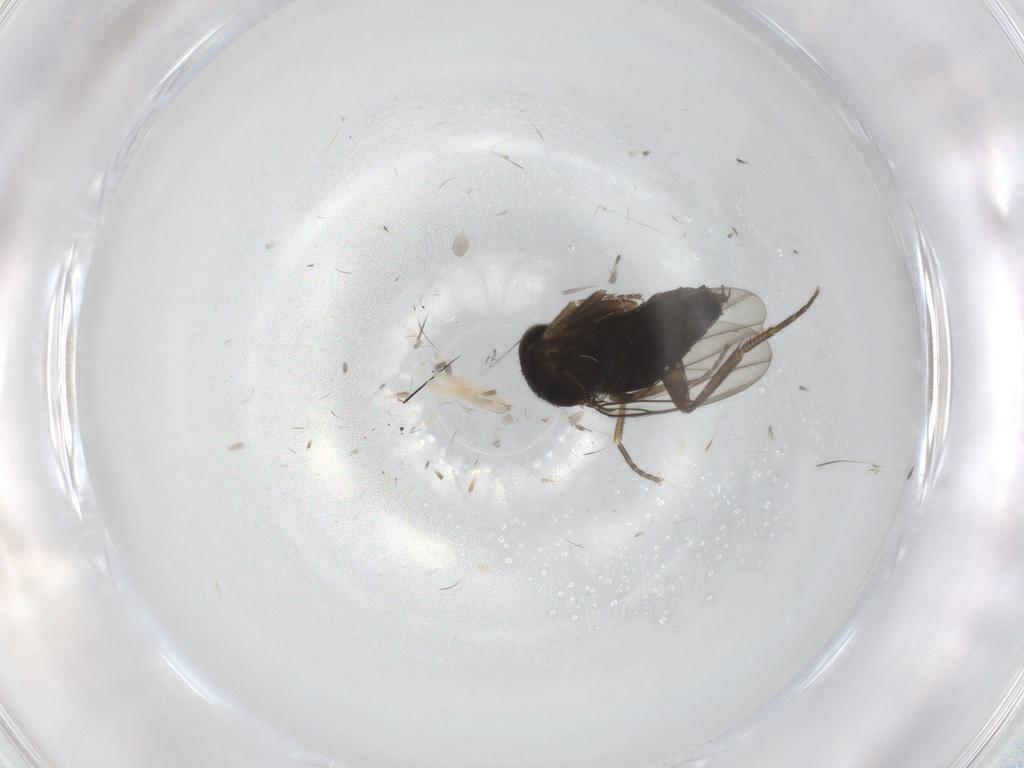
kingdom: Animalia
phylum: Arthropoda
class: Insecta
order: Diptera
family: Phoridae
